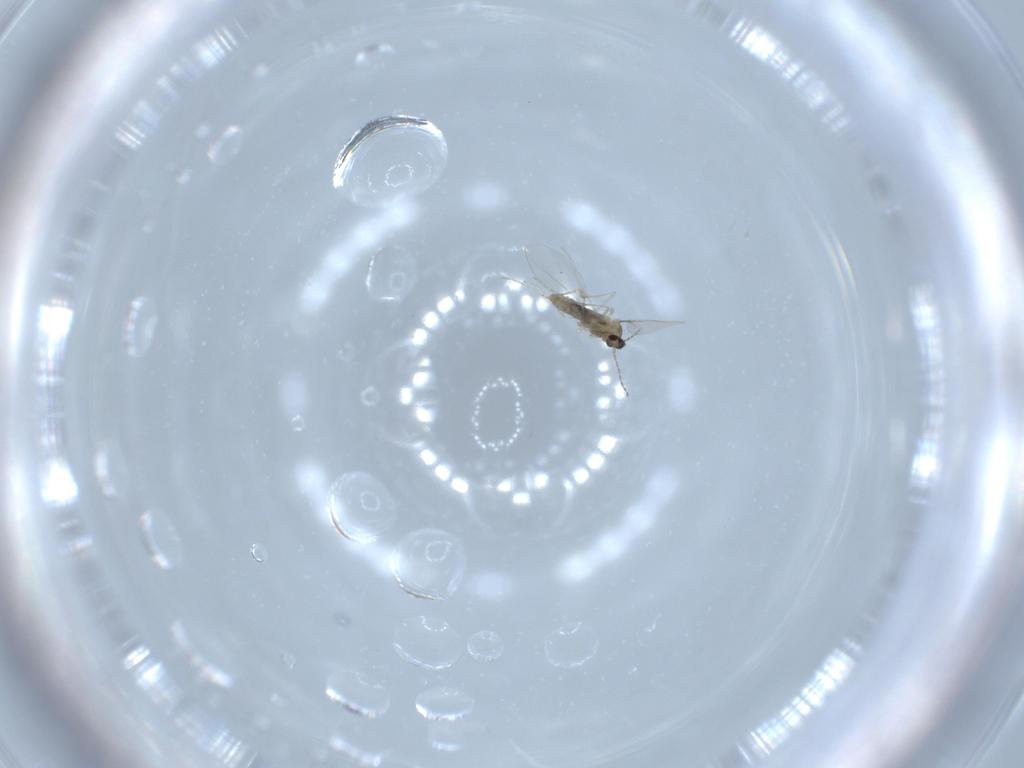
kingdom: Animalia
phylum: Arthropoda
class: Insecta
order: Diptera
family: Cecidomyiidae
